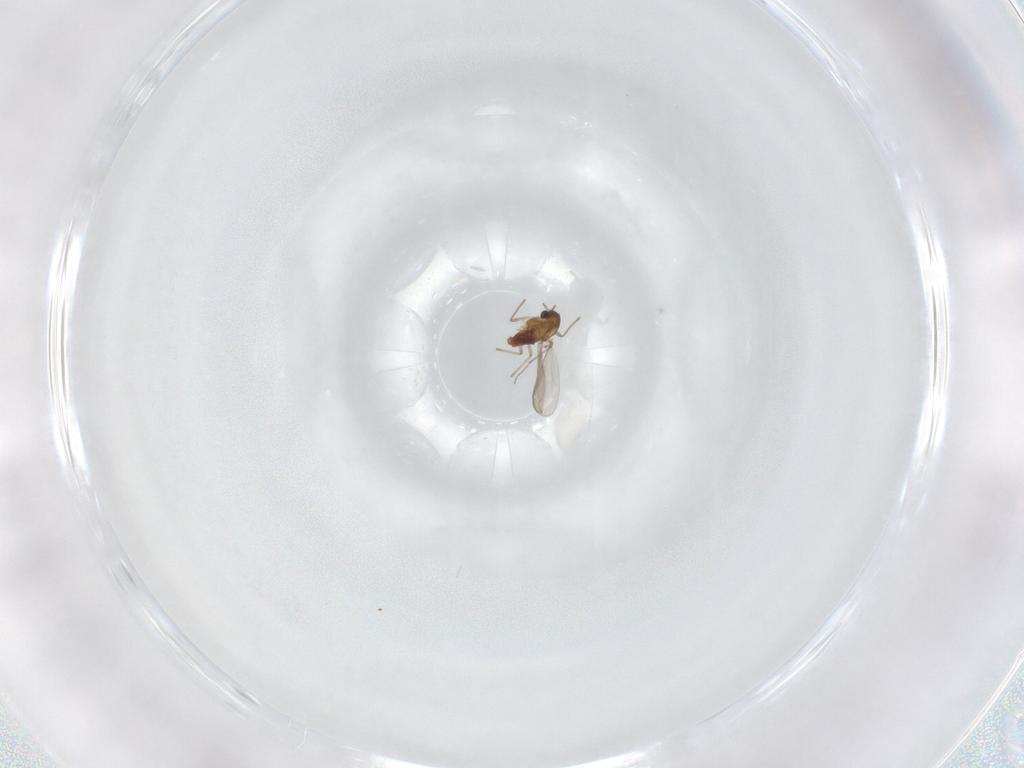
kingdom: Animalia
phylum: Arthropoda
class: Insecta
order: Diptera
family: Chironomidae
